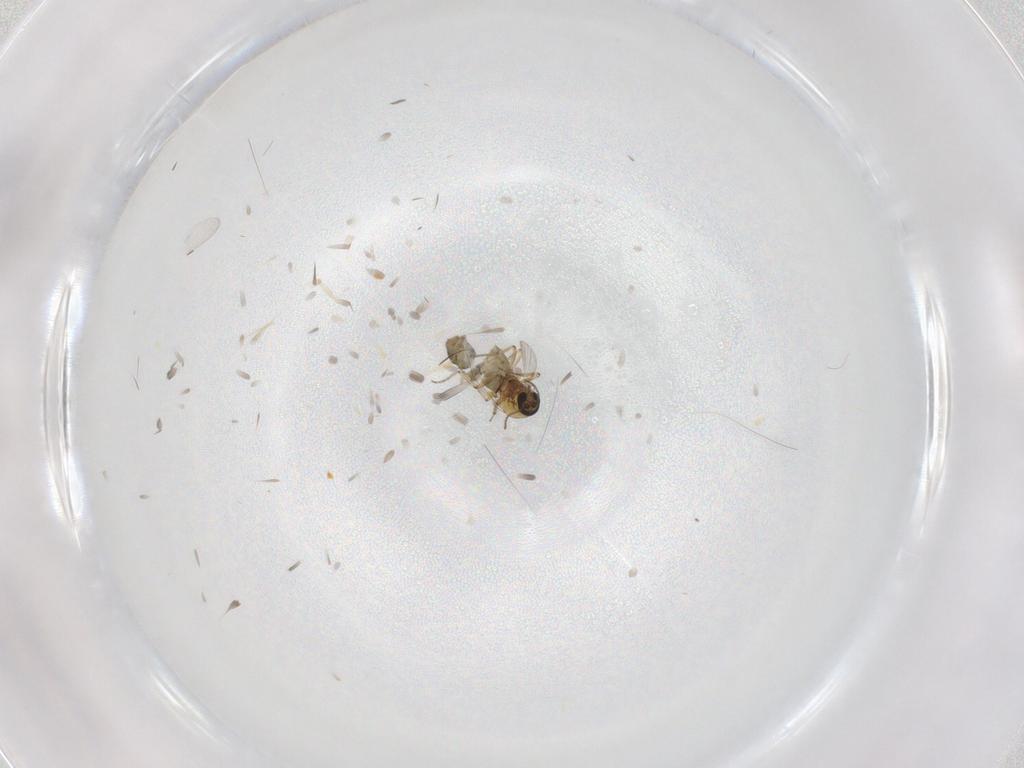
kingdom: Animalia
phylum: Arthropoda
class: Insecta
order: Diptera
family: Ceratopogonidae
